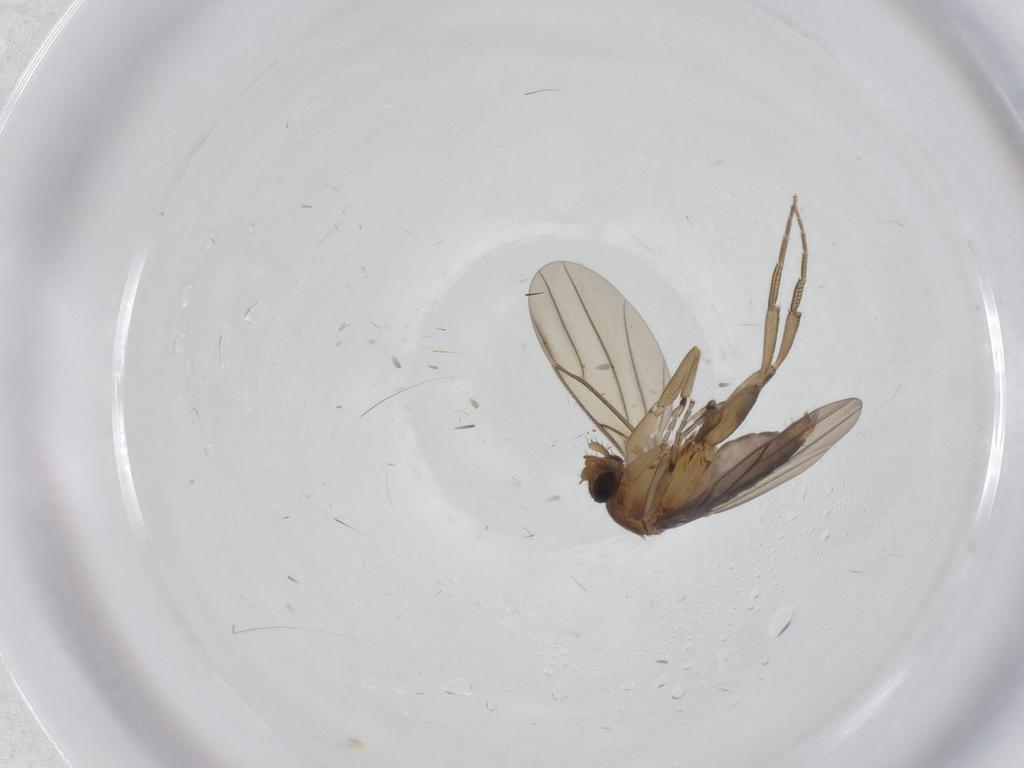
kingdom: Animalia
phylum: Arthropoda
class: Insecta
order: Diptera
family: Phoridae
